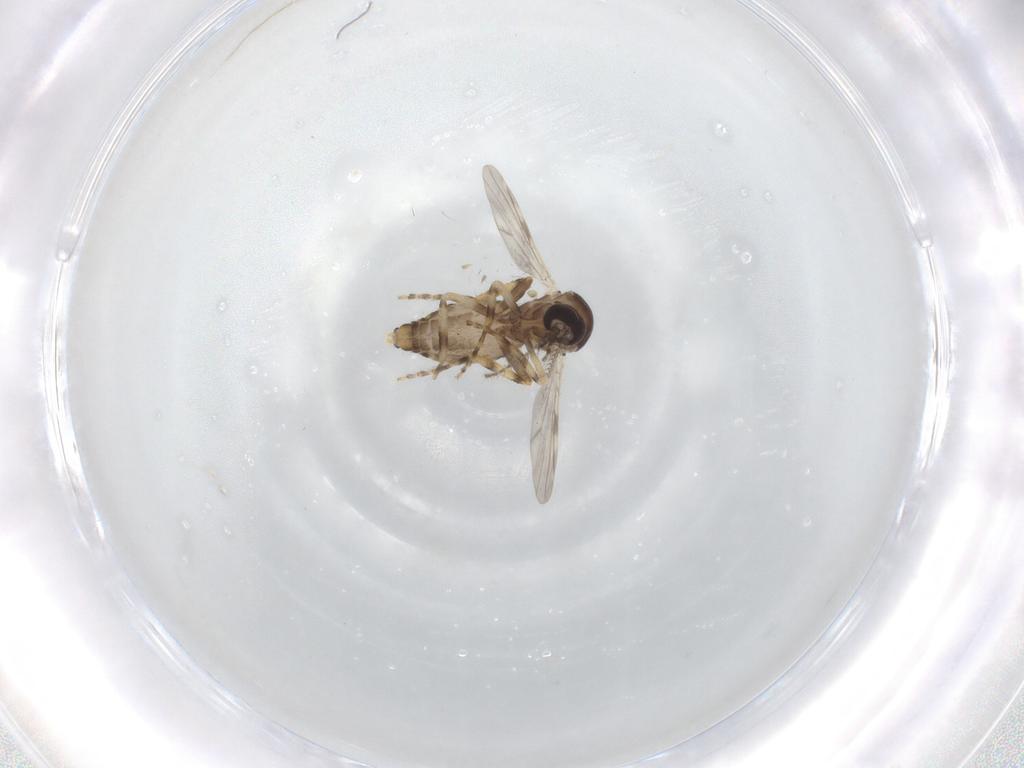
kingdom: Animalia
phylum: Arthropoda
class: Insecta
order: Diptera
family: Ceratopogonidae
